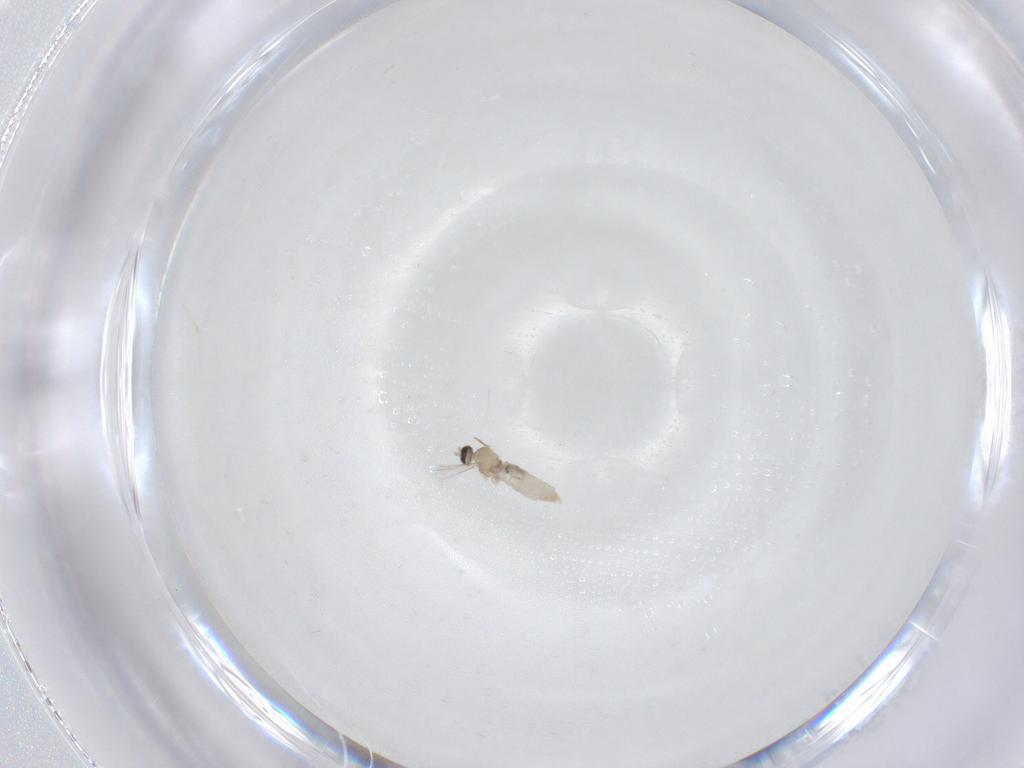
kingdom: Animalia
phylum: Arthropoda
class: Insecta
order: Diptera
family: Cecidomyiidae
